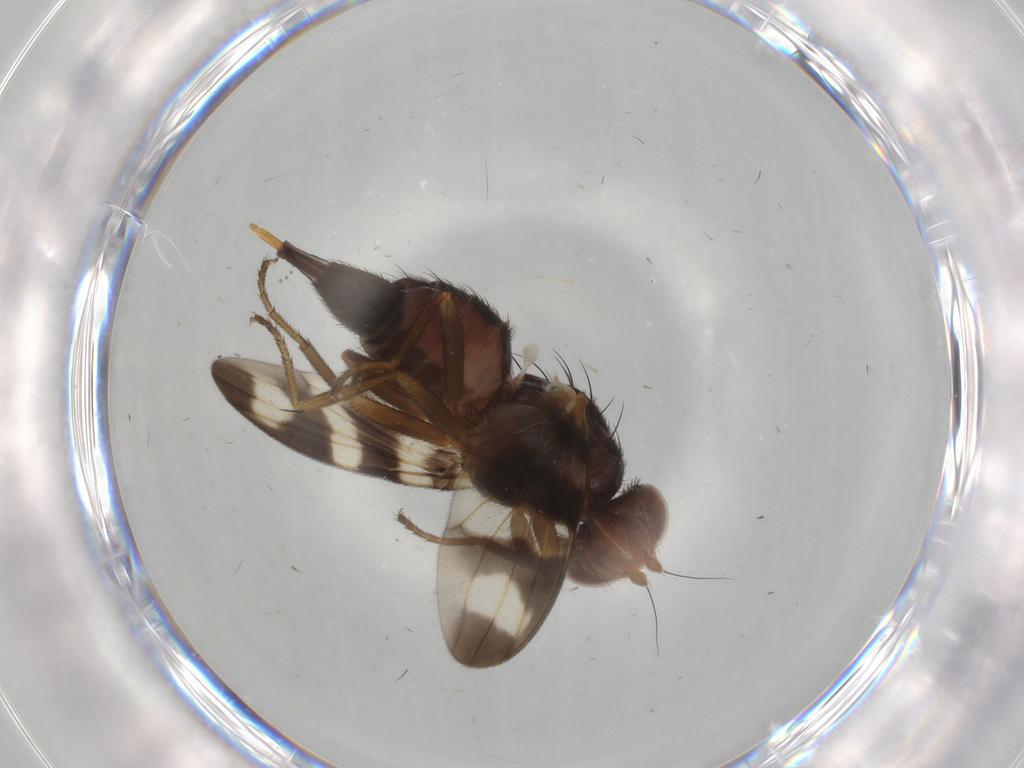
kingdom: Animalia
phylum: Arthropoda
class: Insecta
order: Diptera
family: Ulidiidae
